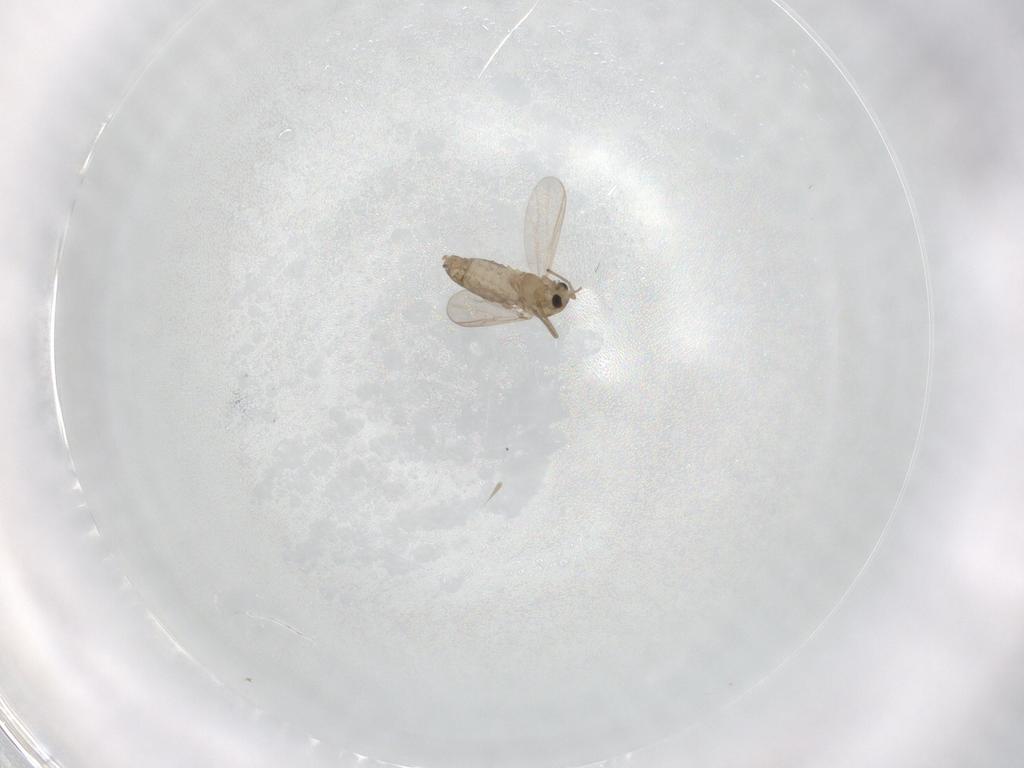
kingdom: Animalia
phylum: Arthropoda
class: Insecta
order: Diptera
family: Chironomidae
